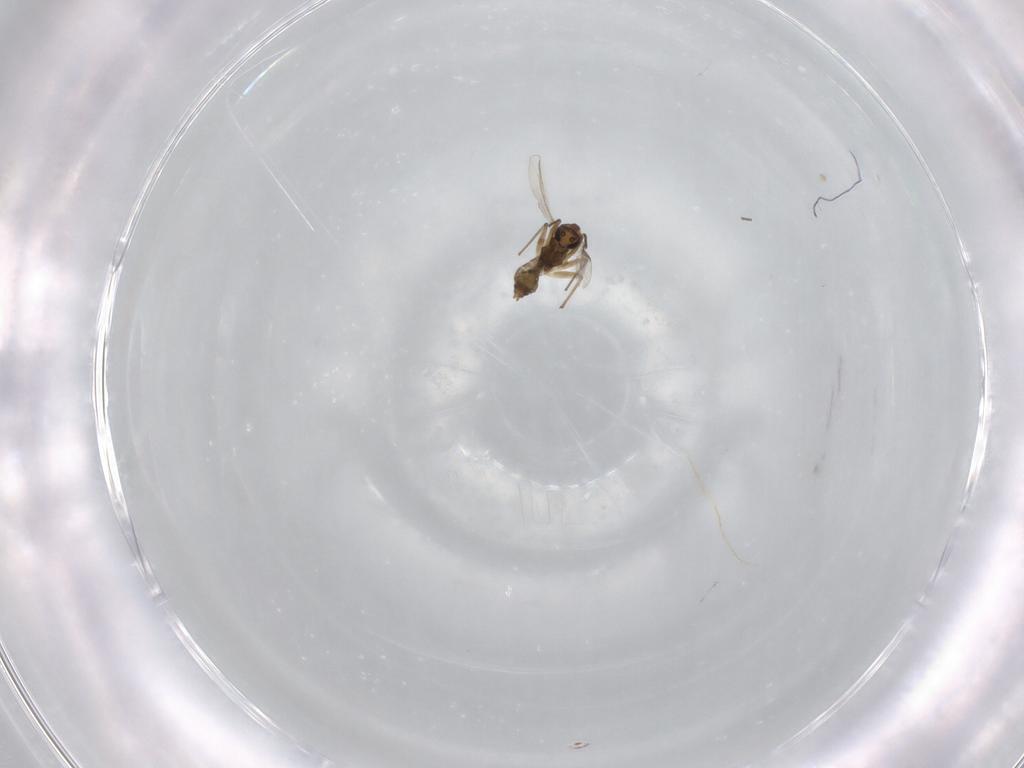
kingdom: Animalia
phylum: Arthropoda
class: Insecta
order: Diptera
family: Chironomidae
